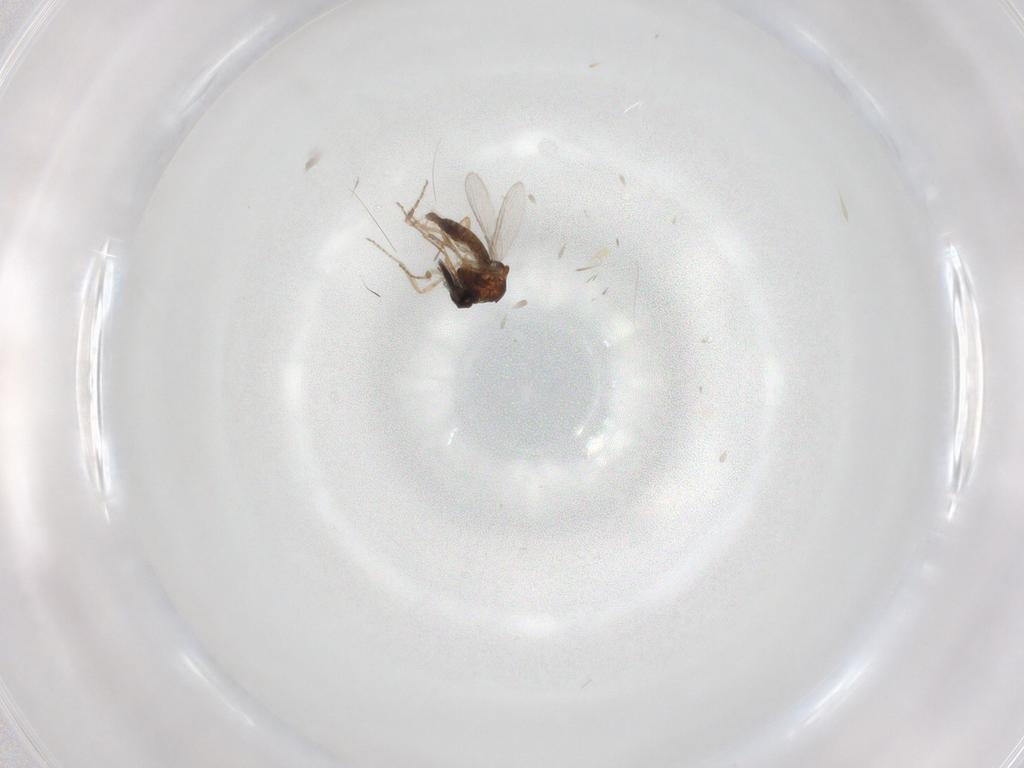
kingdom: Animalia
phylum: Arthropoda
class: Insecta
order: Diptera
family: Ceratopogonidae
